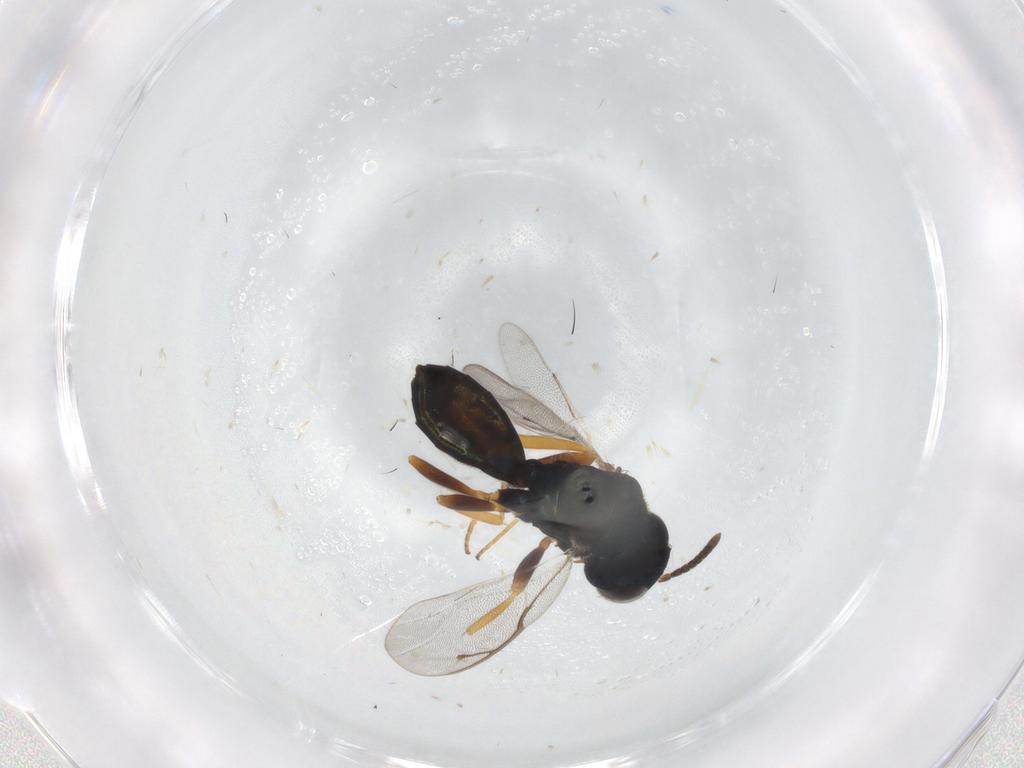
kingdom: Animalia
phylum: Arthropoda
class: Insecta
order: Hymenoptera
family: Pteromalidae
